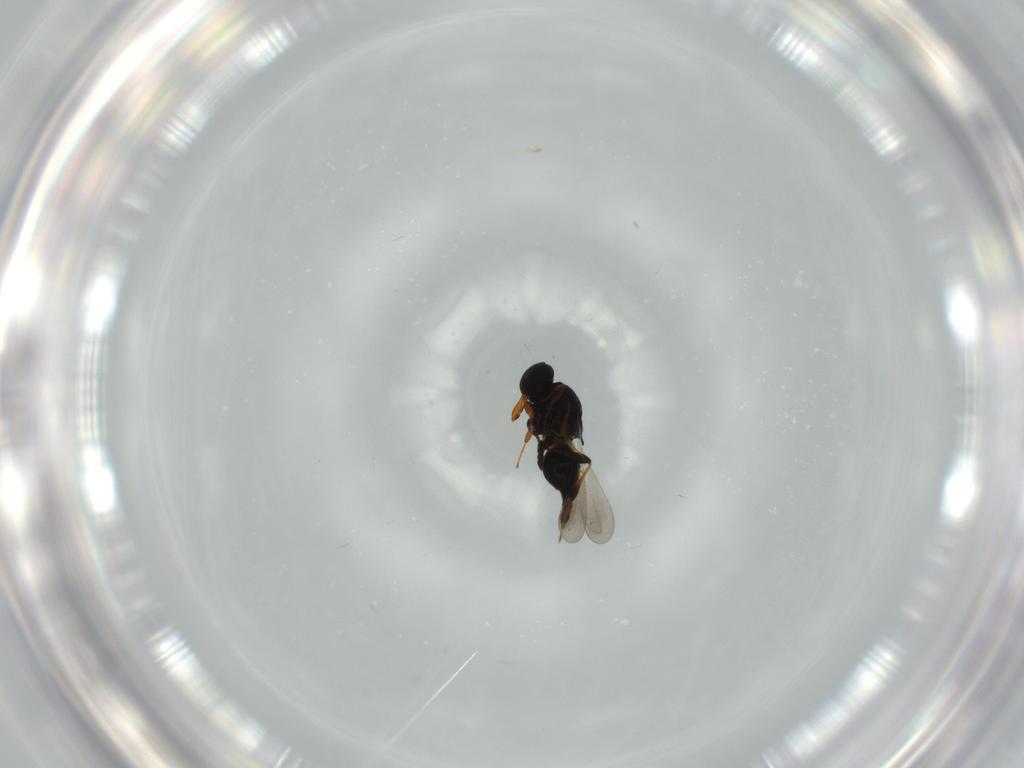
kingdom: Animalia
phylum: Arthropoda
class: Insecta
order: Hymenoptera
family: Platygastridae
